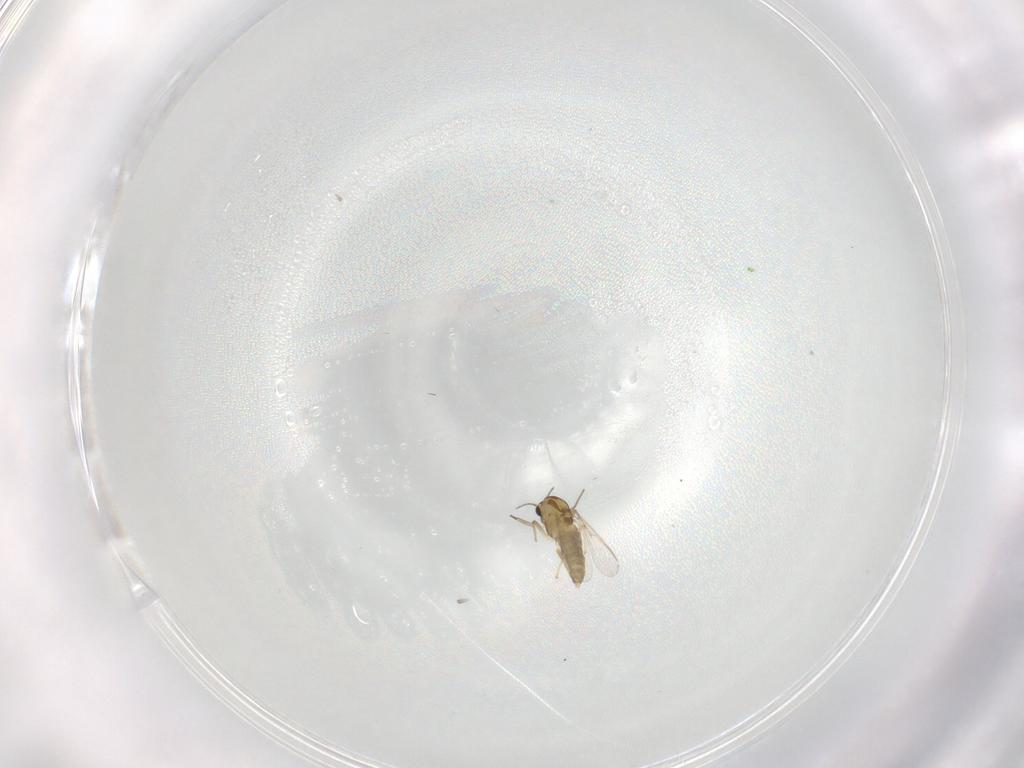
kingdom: Animalia
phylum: Arthropoda
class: Insecta
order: Diptera
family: Chironomidae
